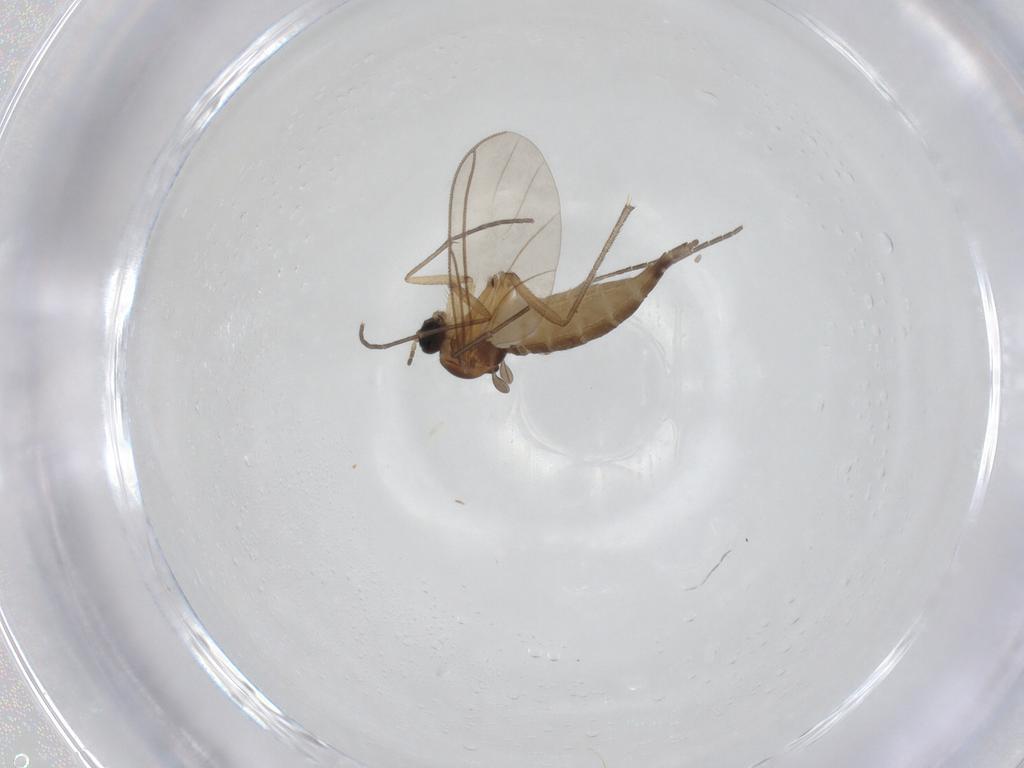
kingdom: Animalia
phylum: Arthropoda
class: Insecta
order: Diptera
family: Sciaridae
